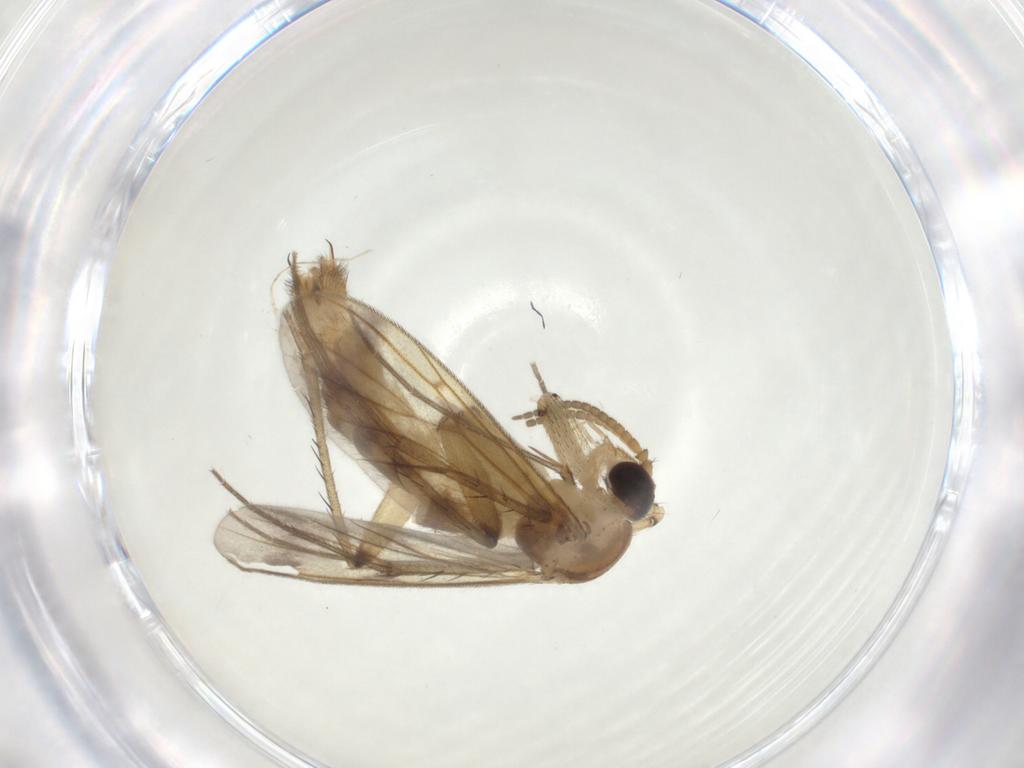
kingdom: Animalia
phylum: Arthropoda
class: Insecta
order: Diptera
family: Mycetophilidae
